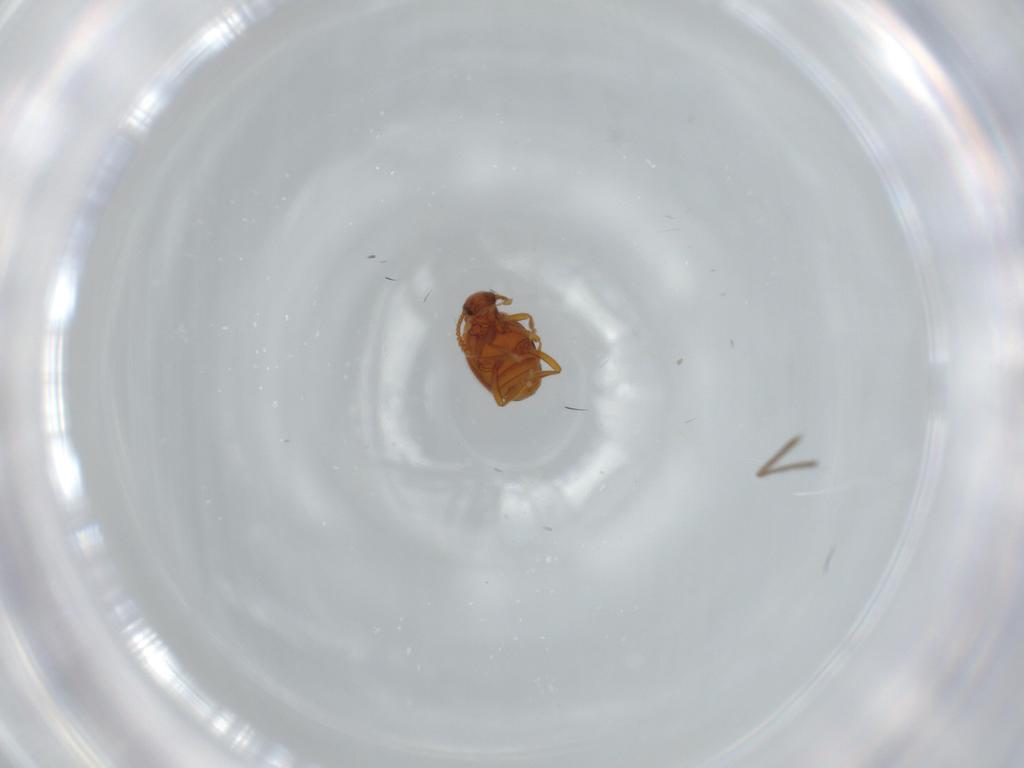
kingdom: Animalia
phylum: Arthropoda
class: Insecta
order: Coleoptera
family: Aderidae
